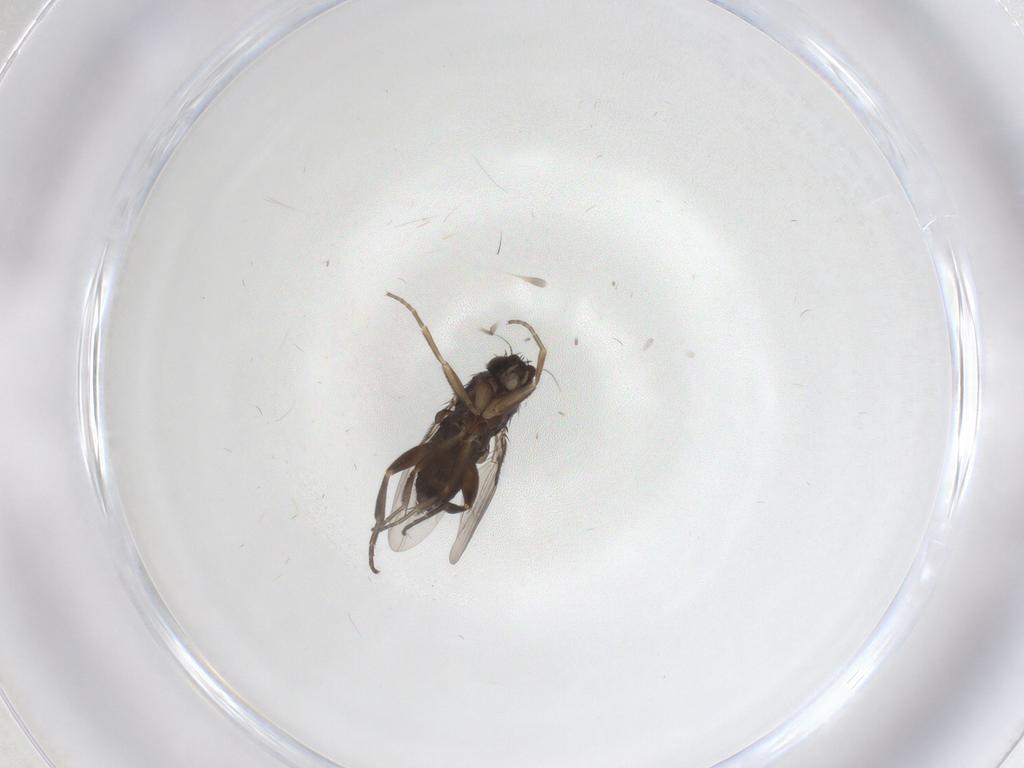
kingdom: Animalia
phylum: Arthropoda
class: Insecta
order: Diptera
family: Phoridae
